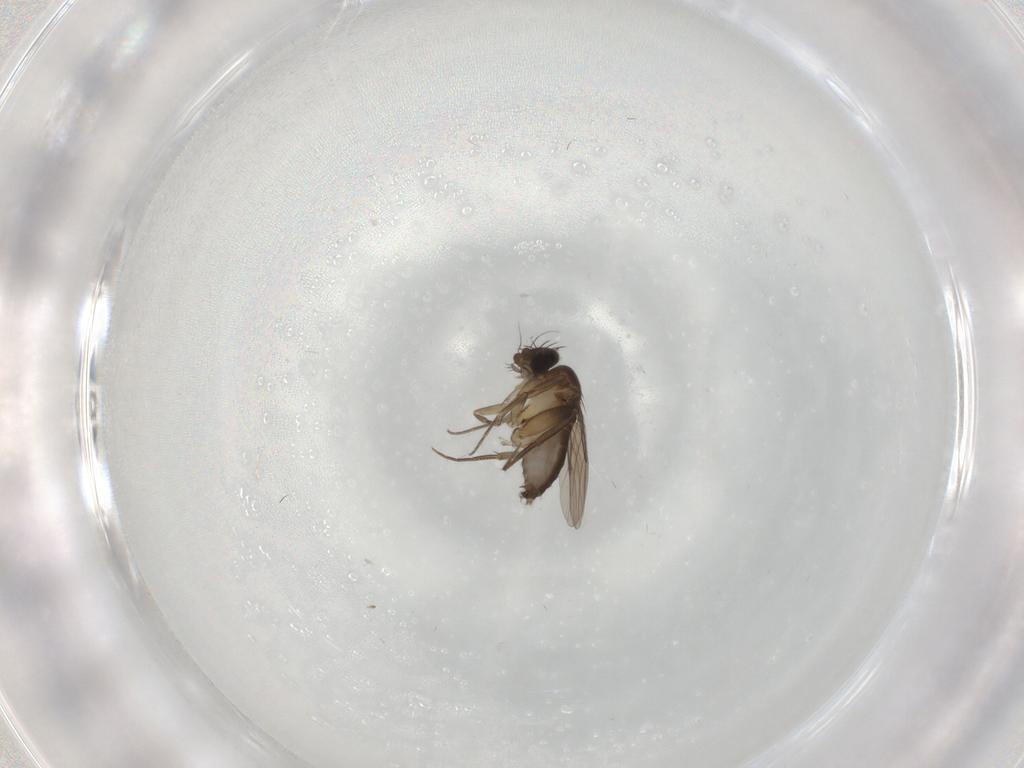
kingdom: Animalia
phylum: Arthropoda
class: Insecta
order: Diptera
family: Phoridae
